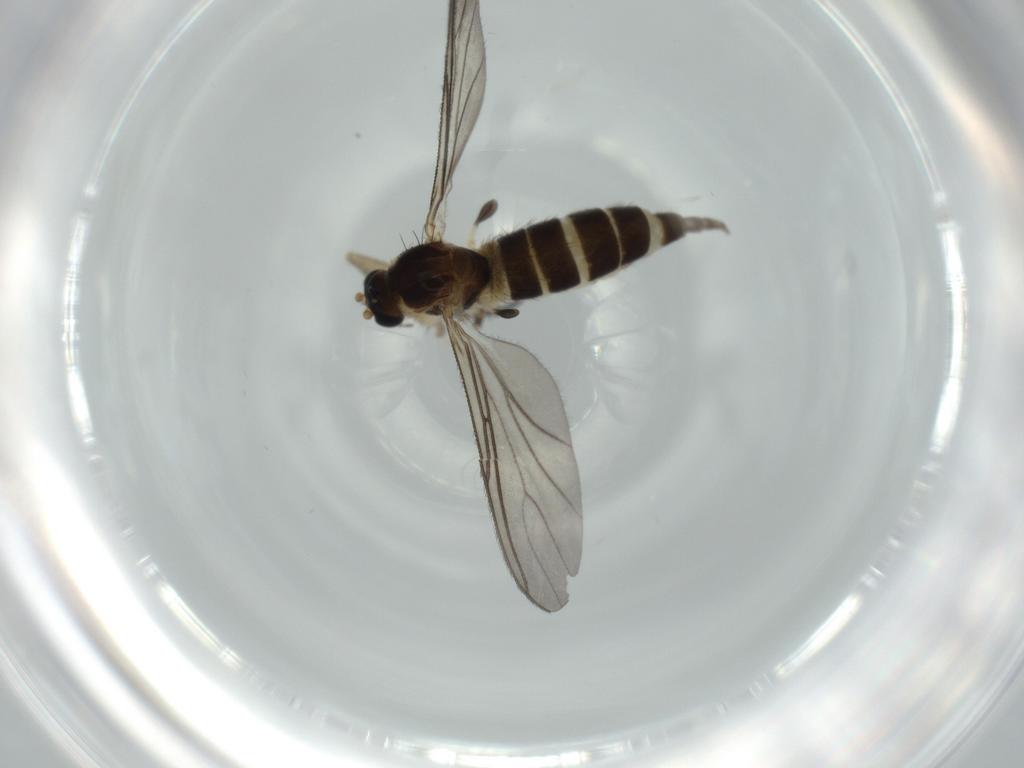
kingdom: Animalia
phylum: Arthropoda
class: Insecta
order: Diptera
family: Sciaridae
